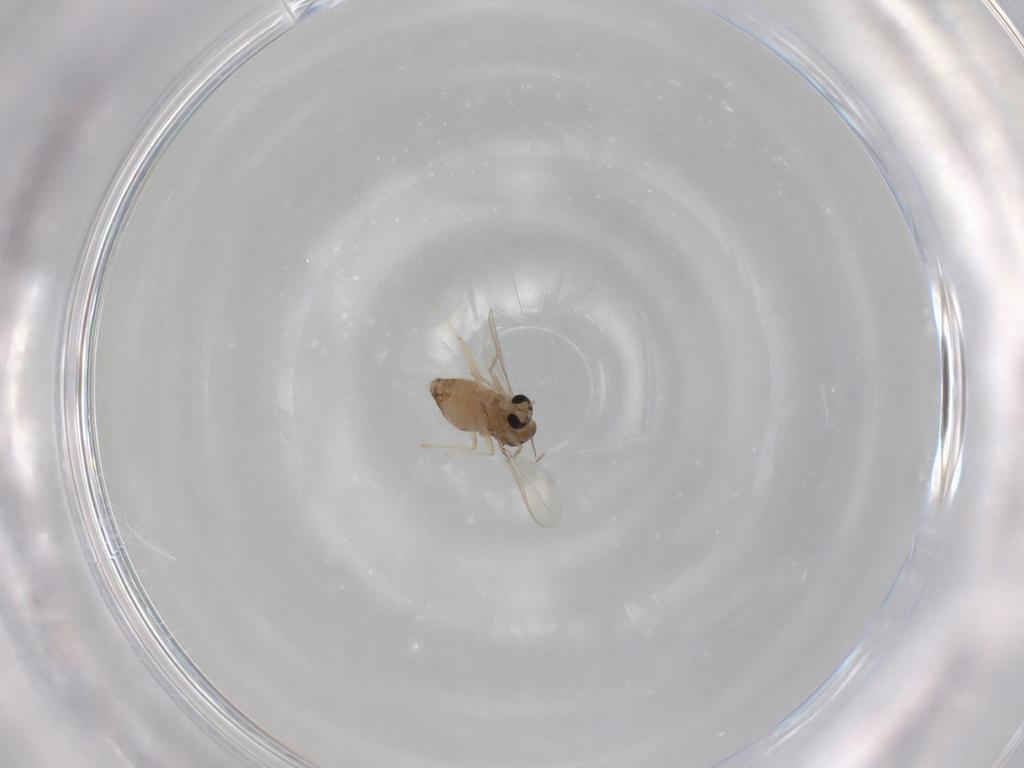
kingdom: Animalia
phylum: Arthropoda
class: Insecta
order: Diptera
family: Chironomidae
